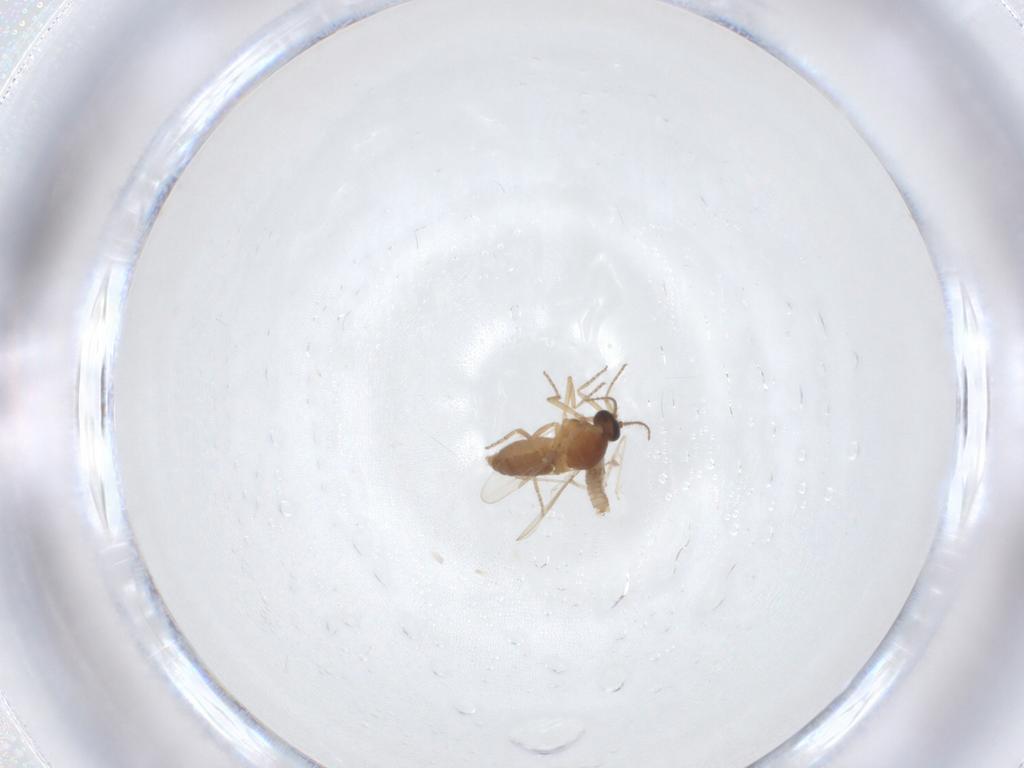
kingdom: Animalia
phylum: Arthropoda
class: Insecta
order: Diptera
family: Ceratopogonidae
